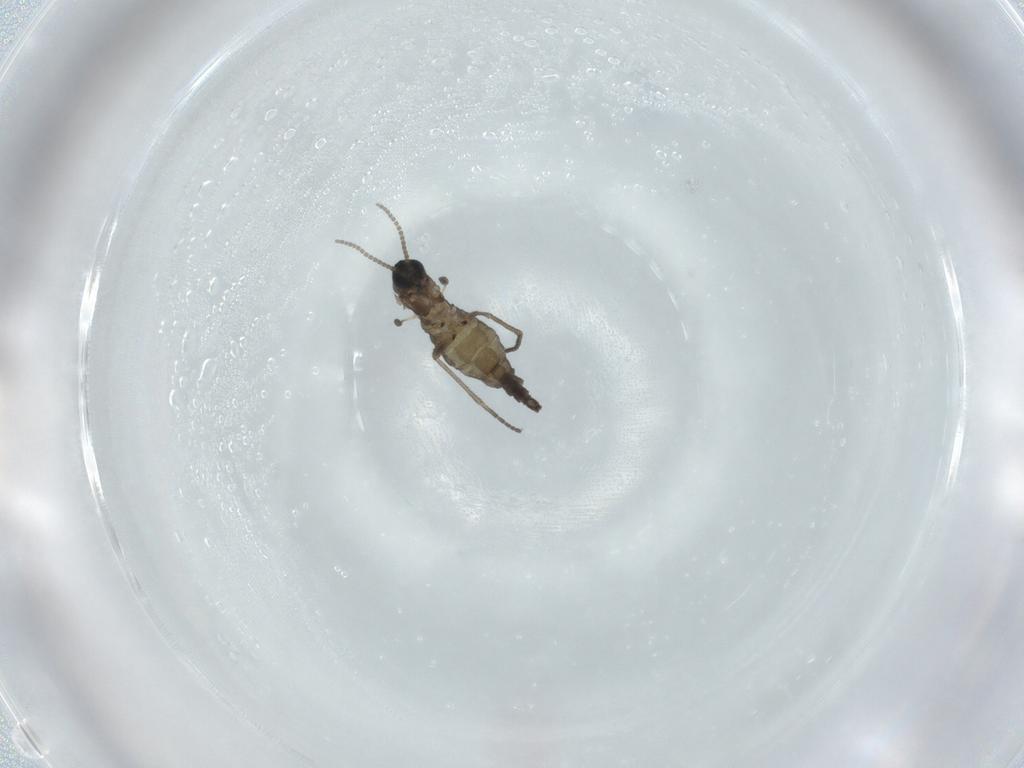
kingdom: Animalia
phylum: Arthropoda
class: Insecta
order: Diptera
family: Sciaridae
